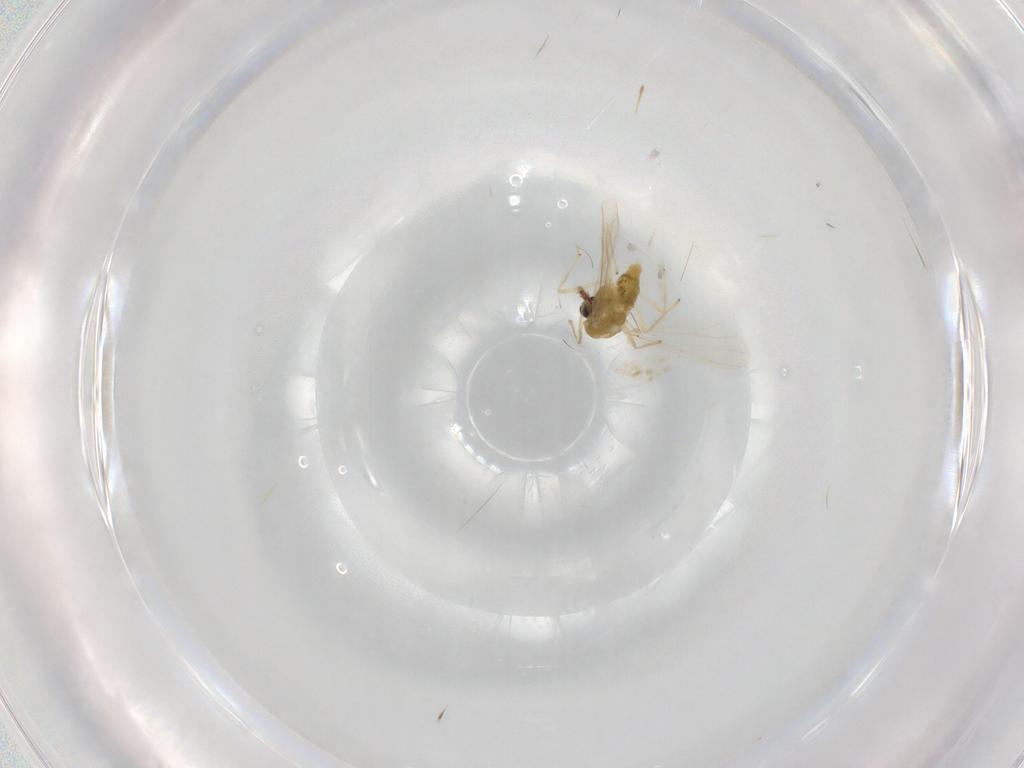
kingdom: Animalia
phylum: Arthropoda
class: Insecta
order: Diptera
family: Chironomidae
